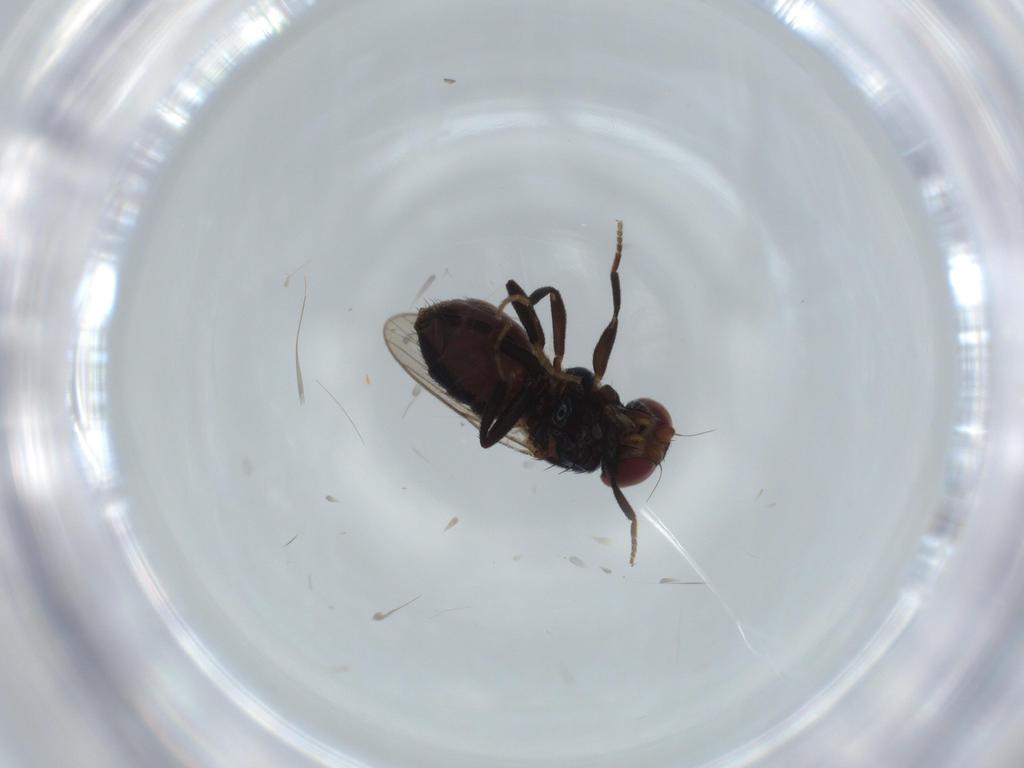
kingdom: Animalia
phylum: Arthropoda
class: Insecta
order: Diptera
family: Chloropidae
